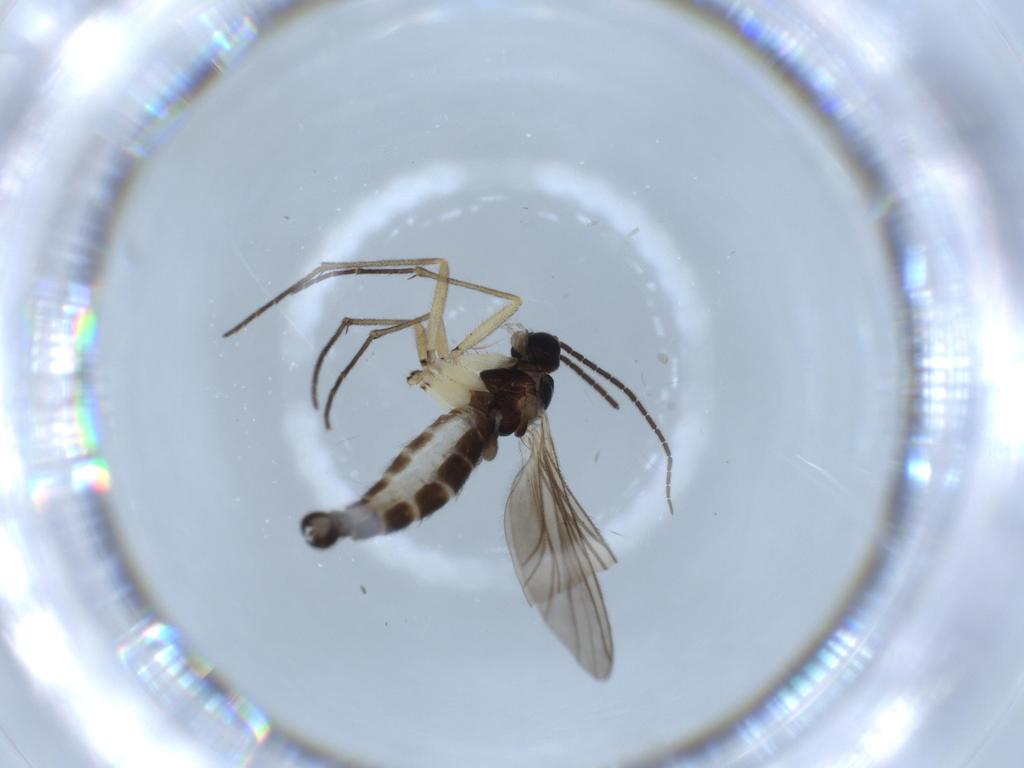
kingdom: Animalia
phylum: Arthropoda
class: Insecta
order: Diptera
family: Sciaridae
